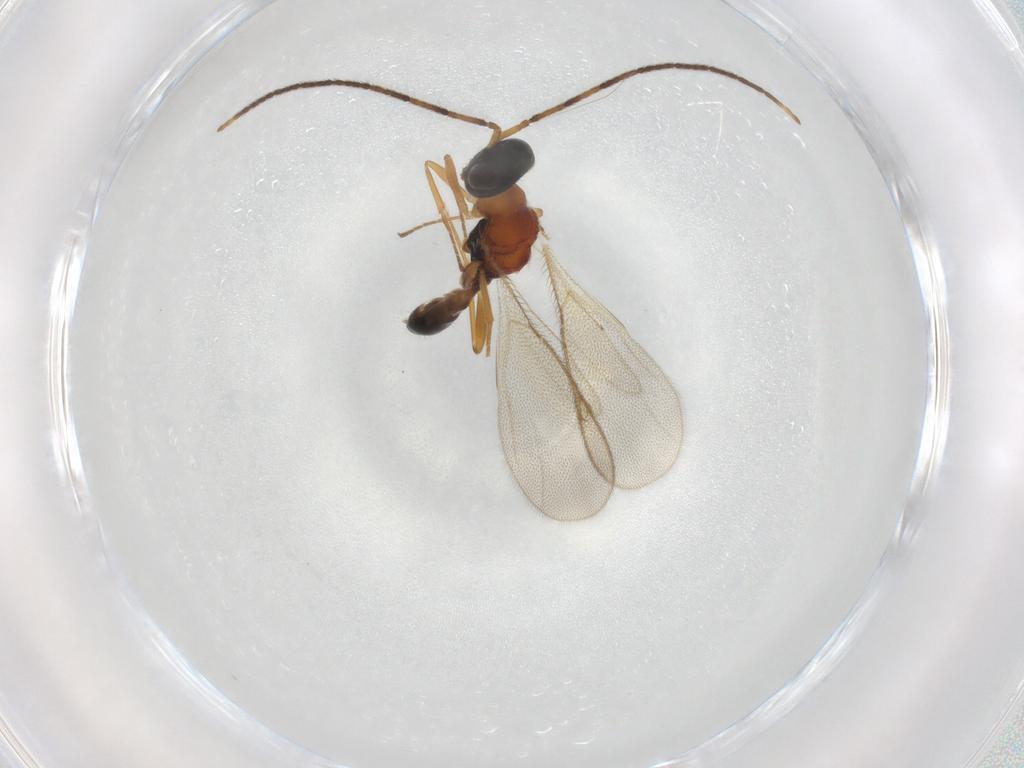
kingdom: Animalia
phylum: Arthropoda
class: Insecta
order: Hymenoptera
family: Pteromalidae
